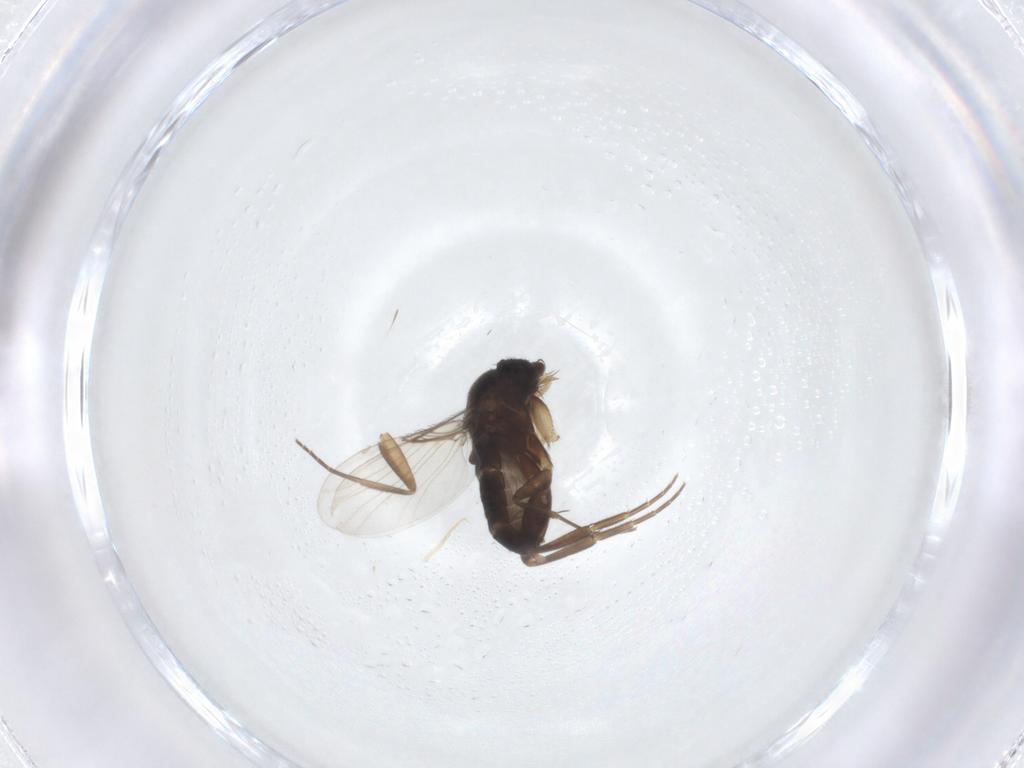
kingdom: Animalia
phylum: Arthropoda
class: Insecta
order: Diptera
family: Phoridae
